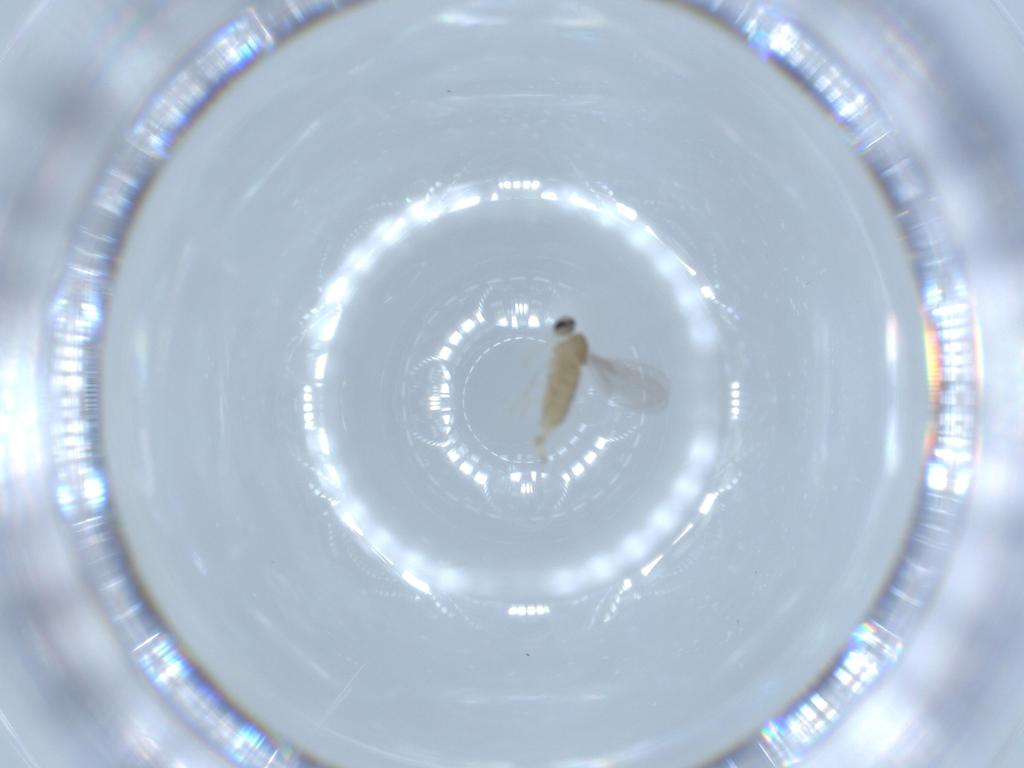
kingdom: Animalia
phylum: Arthropoda
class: Insecta
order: Diptera
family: Cecidomyiidae
